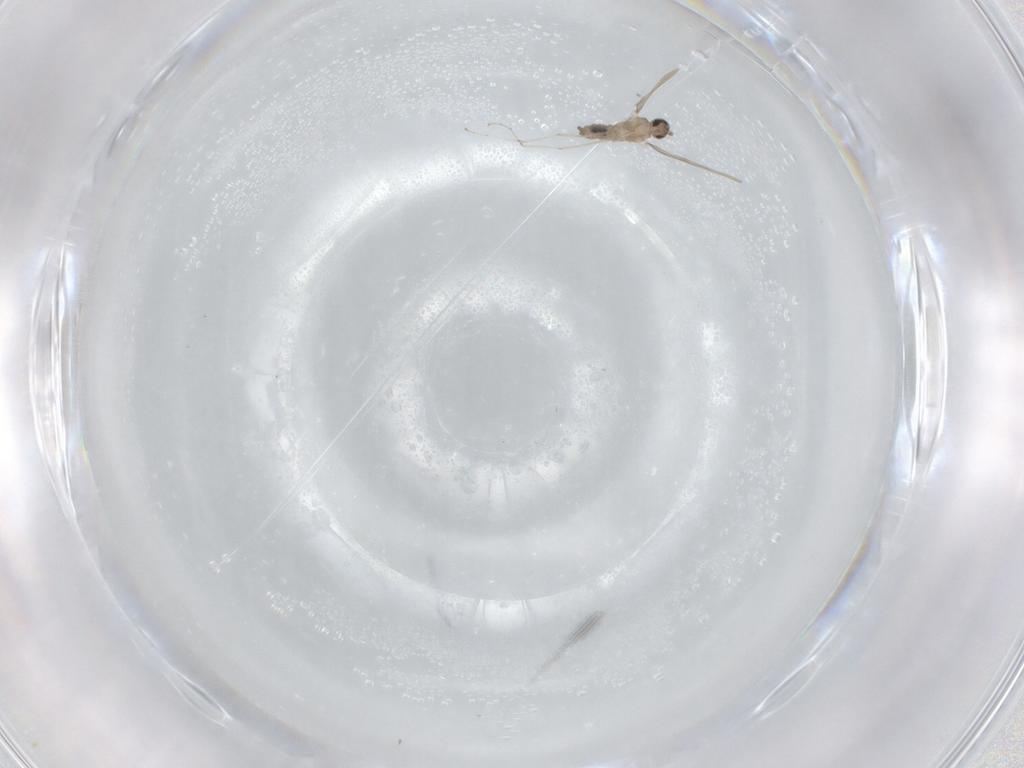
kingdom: Animalia
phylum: Arthropoda
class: Insecta
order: Diptera
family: Cecidomyiidae
